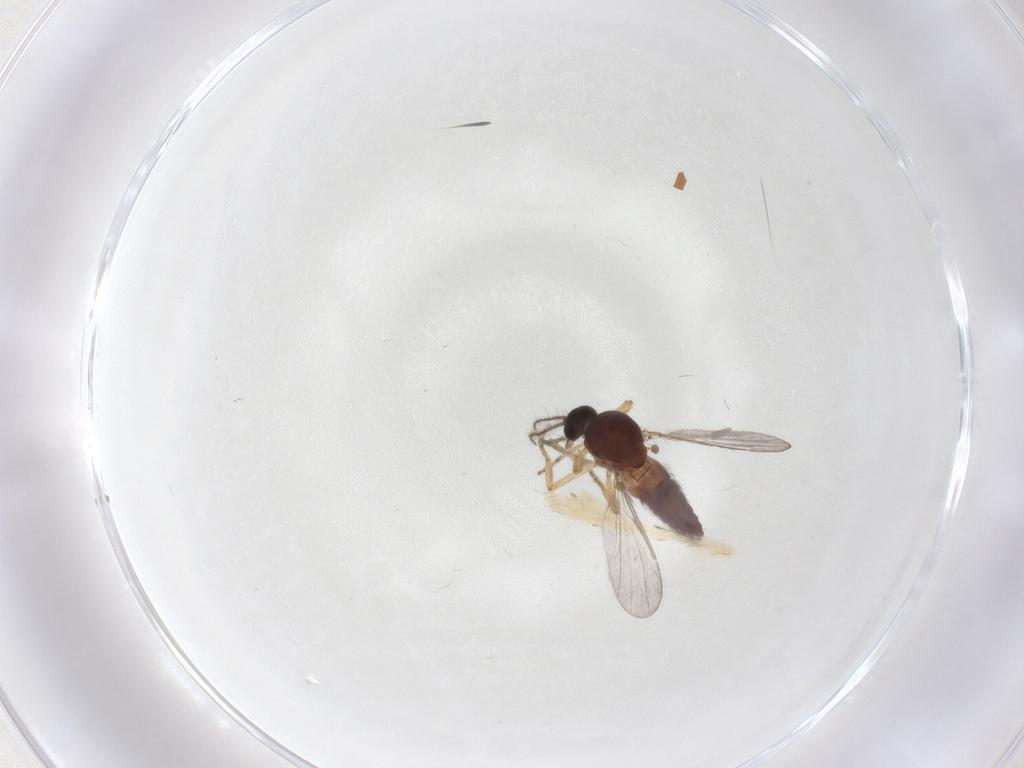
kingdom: Animalia
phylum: Arthropoda
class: Insecta
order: Diptera
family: Ceratopogonidae
